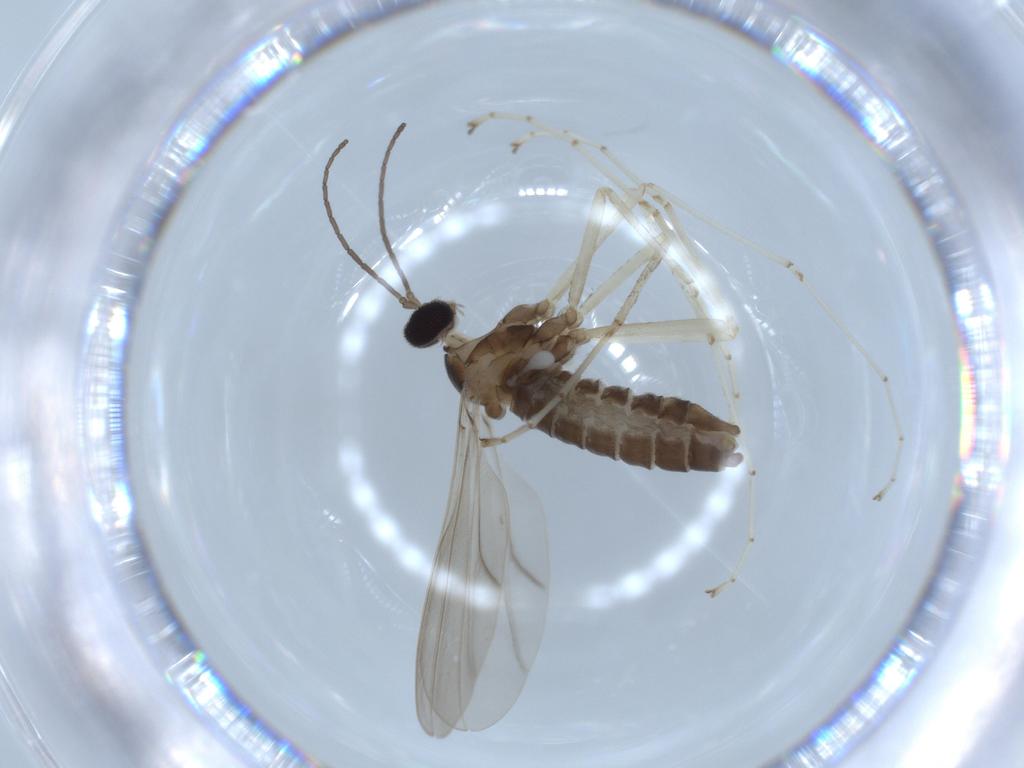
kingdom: Animalia
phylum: Arthropoda
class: Insecta
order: Diptera
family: Cecidomyiidae
